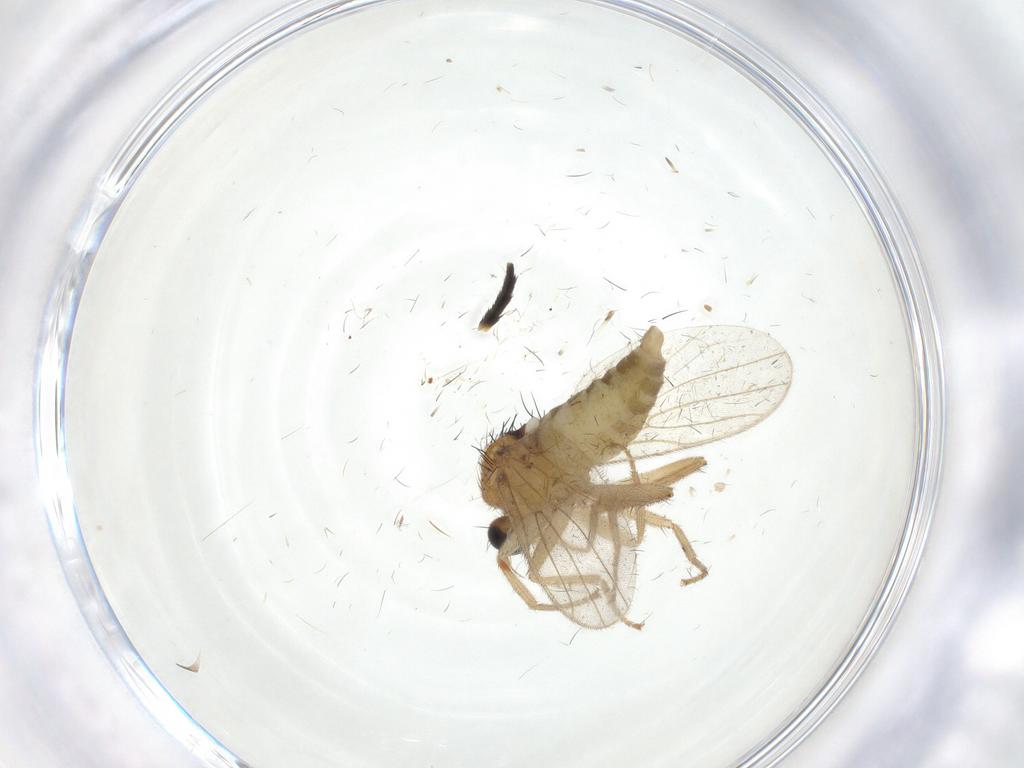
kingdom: Animalia
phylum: Arthropoda
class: Insecta
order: Diptera
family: Hybotidae
